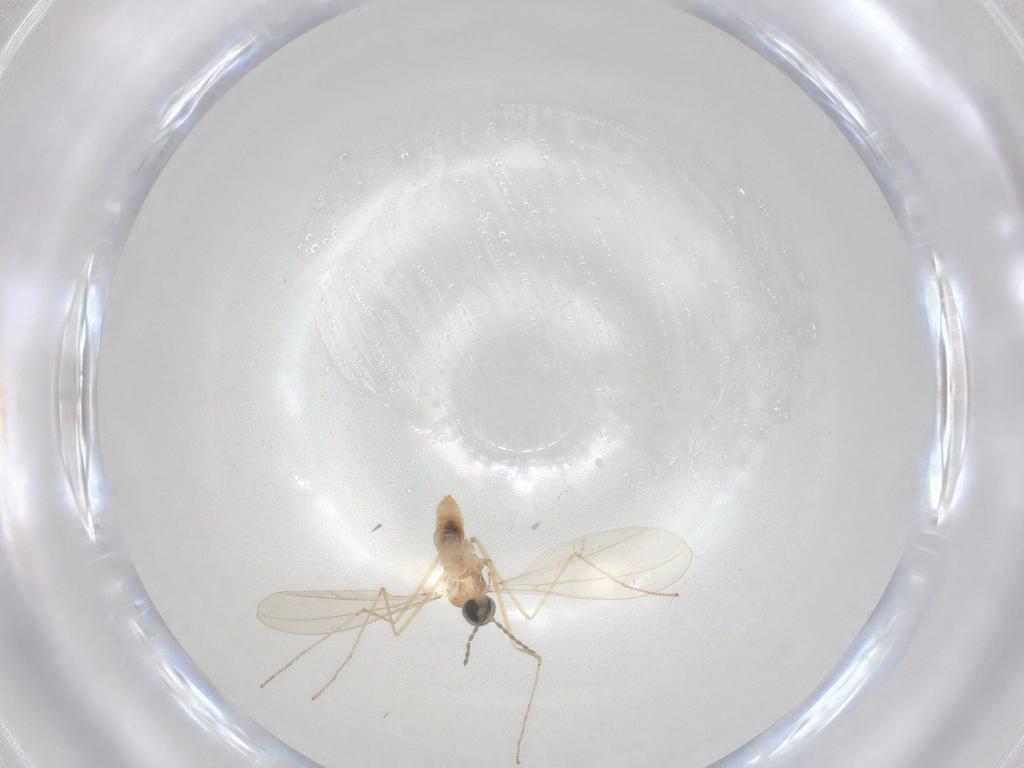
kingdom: Animalia
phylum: Arthropoda
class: Insecta
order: Diptera
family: Cecidomyiidae
